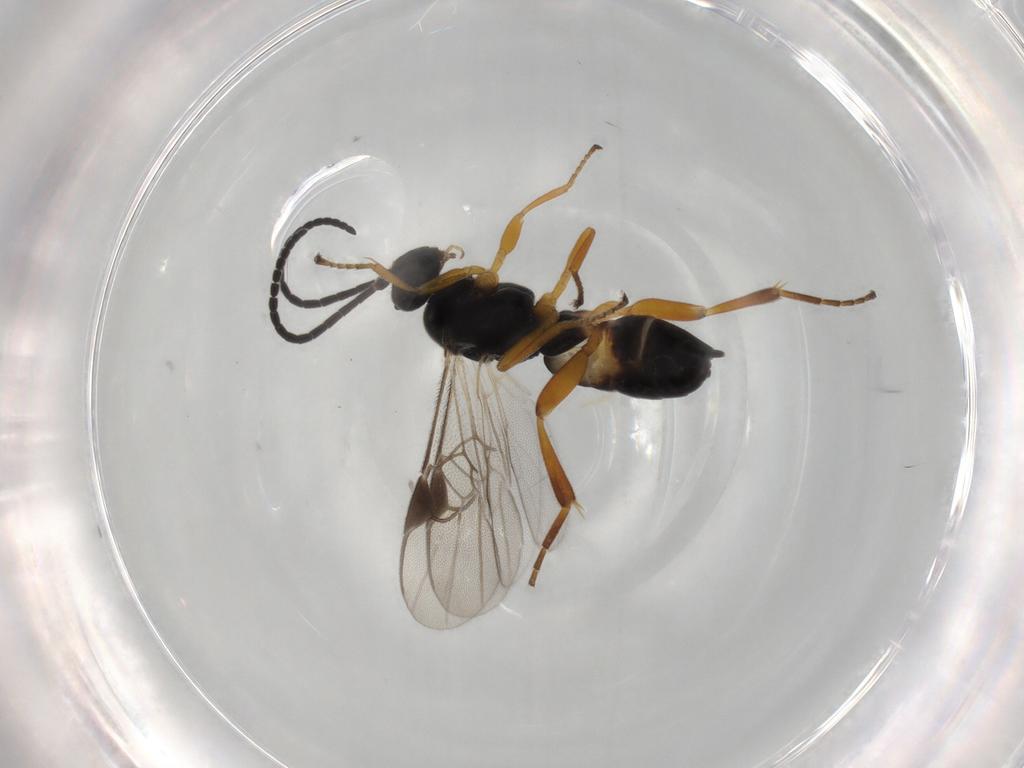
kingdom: Animalia
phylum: Arthropoda
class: Insecta
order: Hymenoptera
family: Braconidae
